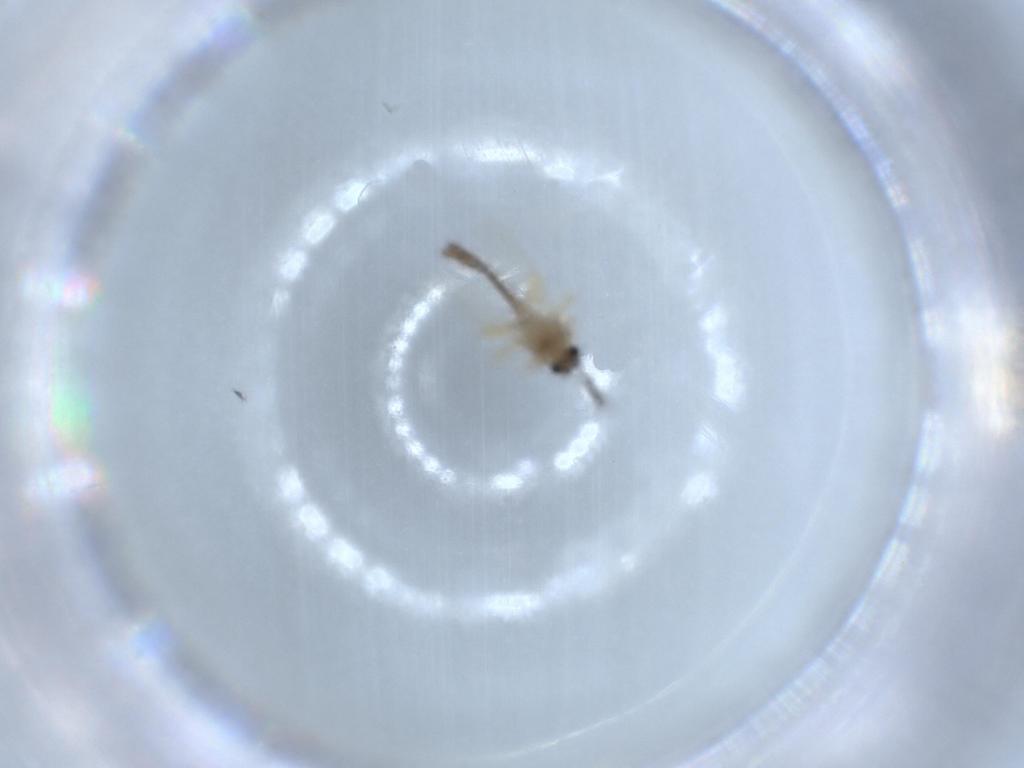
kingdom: Animalia
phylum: Arthropoda
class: Insecta
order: Diptera
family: Ceratopogonidae
